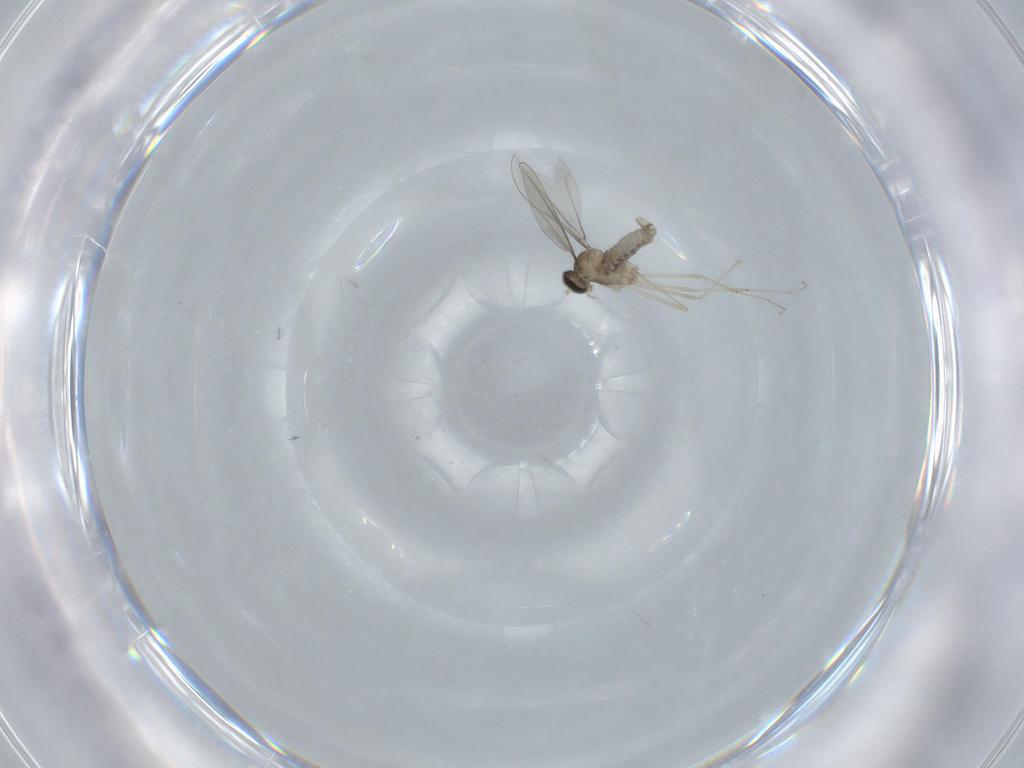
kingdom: Animalia
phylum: Arthropoda
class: Insecta
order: Diptera
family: Cecidomyiidae
